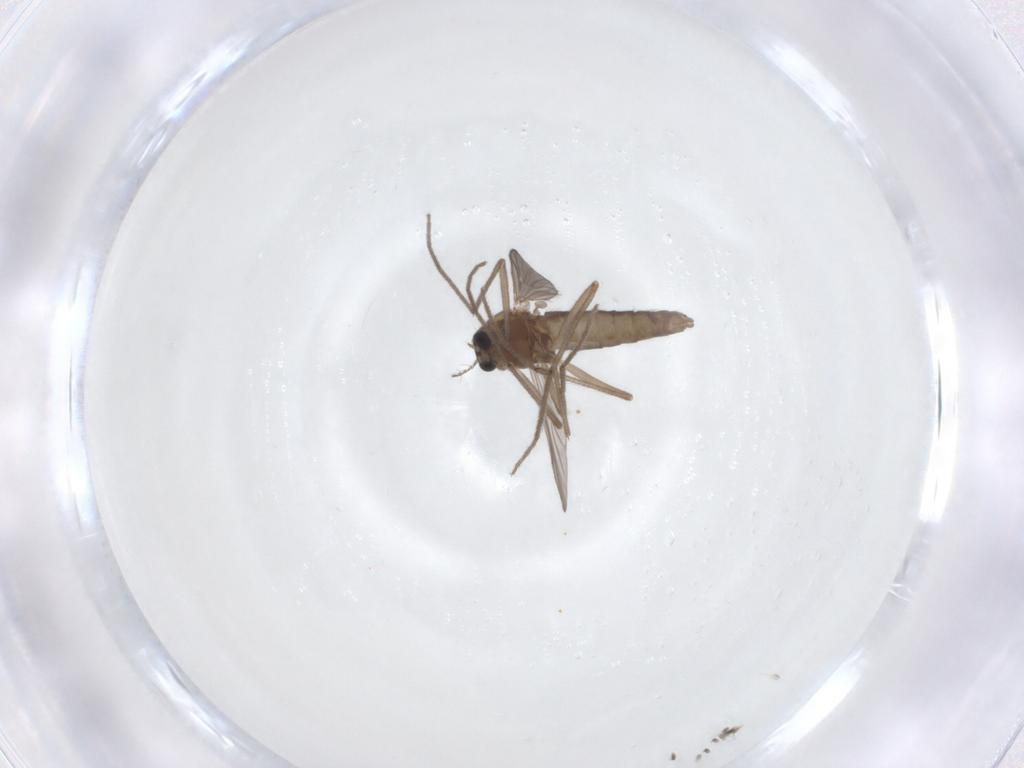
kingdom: Animalia
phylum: Arthropoda
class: Insecta
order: Diptera
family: Chironomidae
